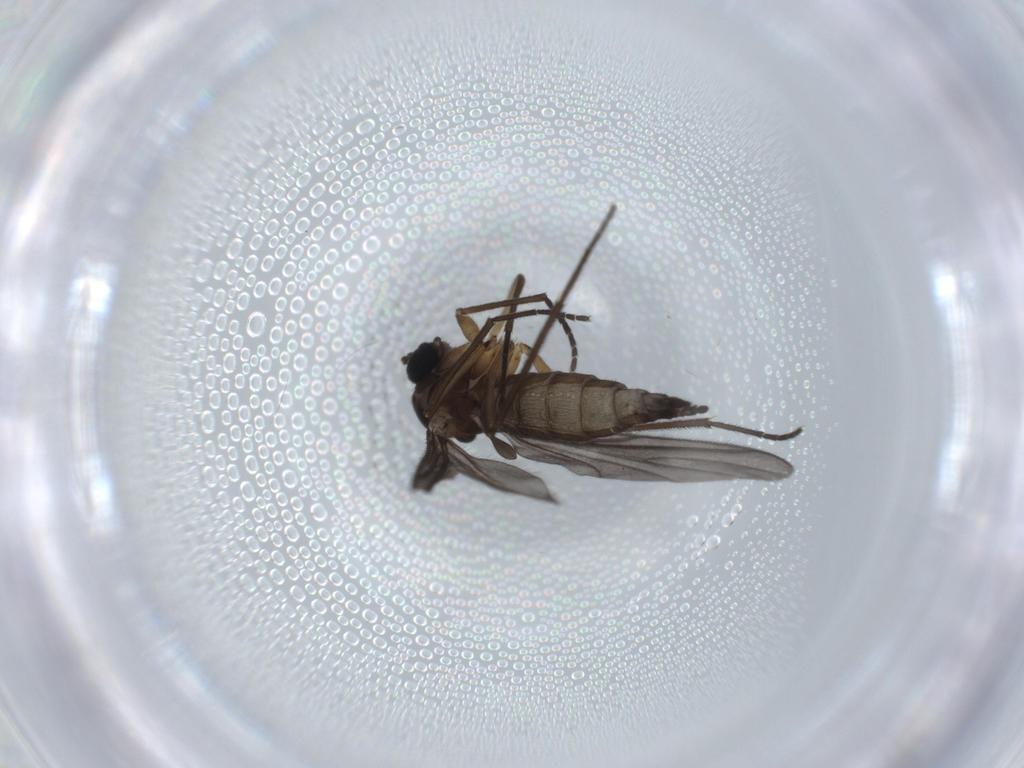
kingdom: Animalia
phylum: Arthropoda
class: Insecta
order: Diptera
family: Sciaridae
